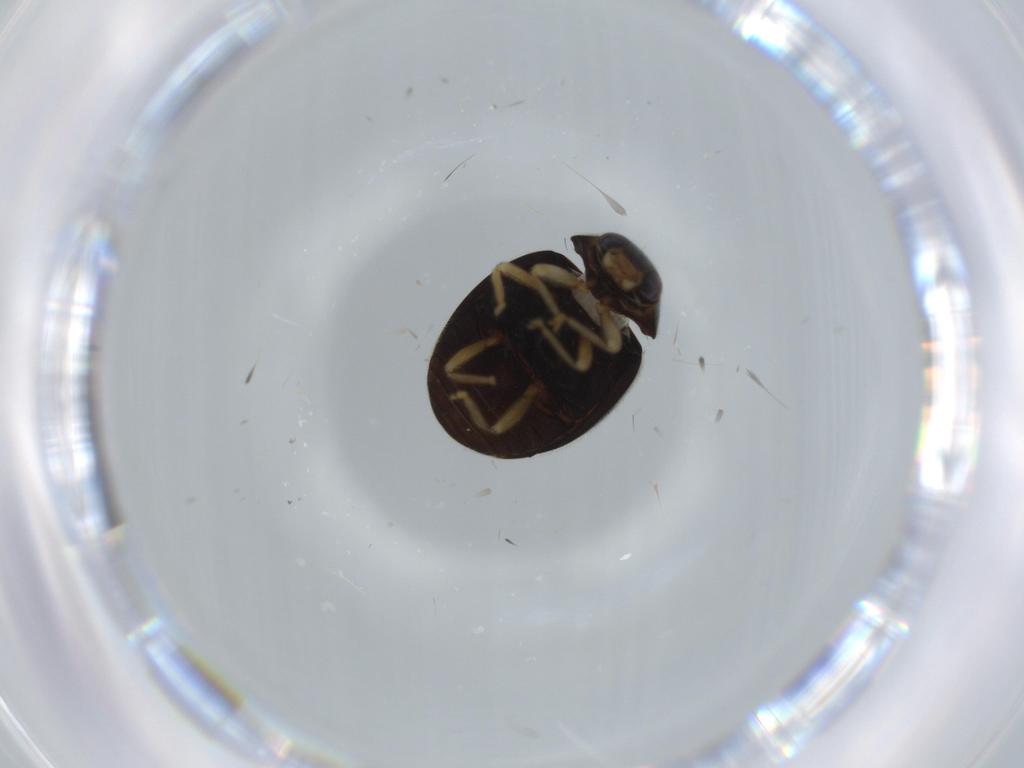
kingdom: Animalia
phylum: Arthropoda
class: Insecta
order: Coleoptera
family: Coccinellidae
